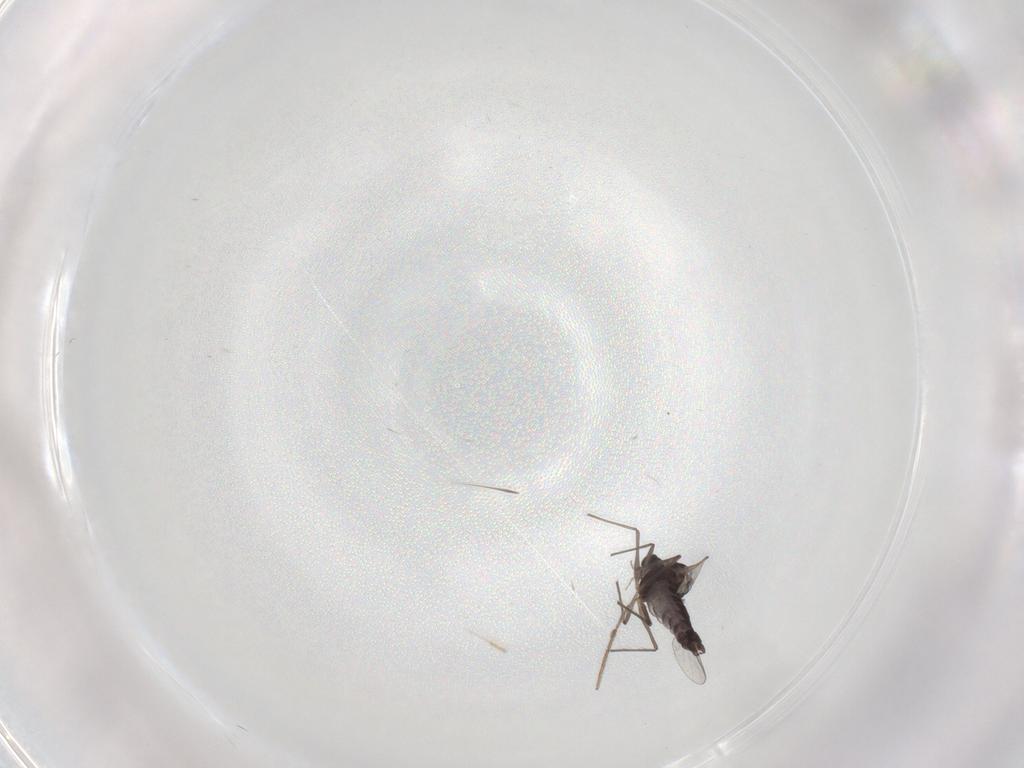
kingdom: Animalia
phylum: Arthropoda
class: Insecta
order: Diptera
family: Chironomidae
